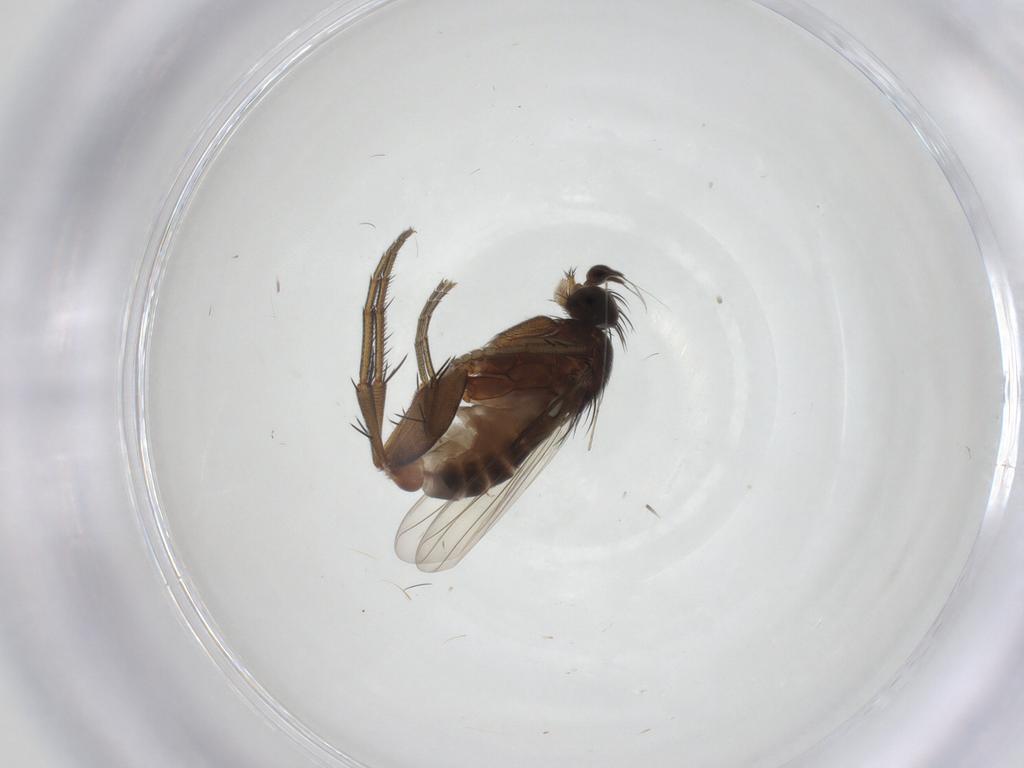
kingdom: Animalia
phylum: Arthropoda
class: Insecta
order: Diptera
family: Phoridae
